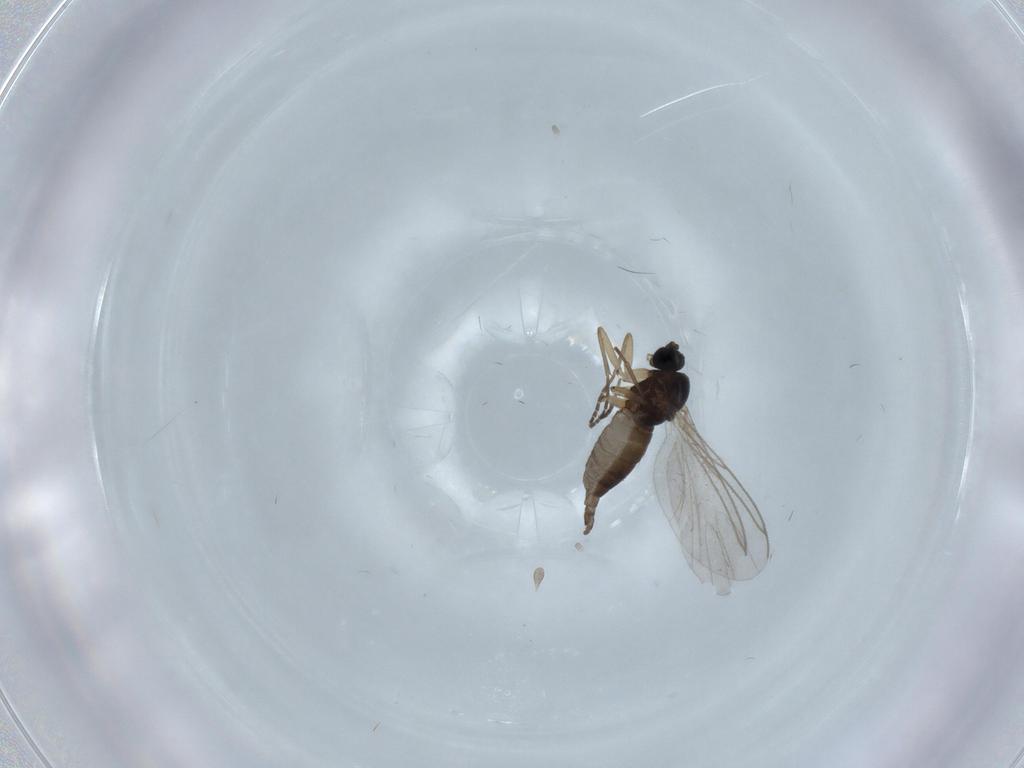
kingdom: Animalia
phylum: Arthropoda
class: Insecta
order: Diptera
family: Sciaridae
